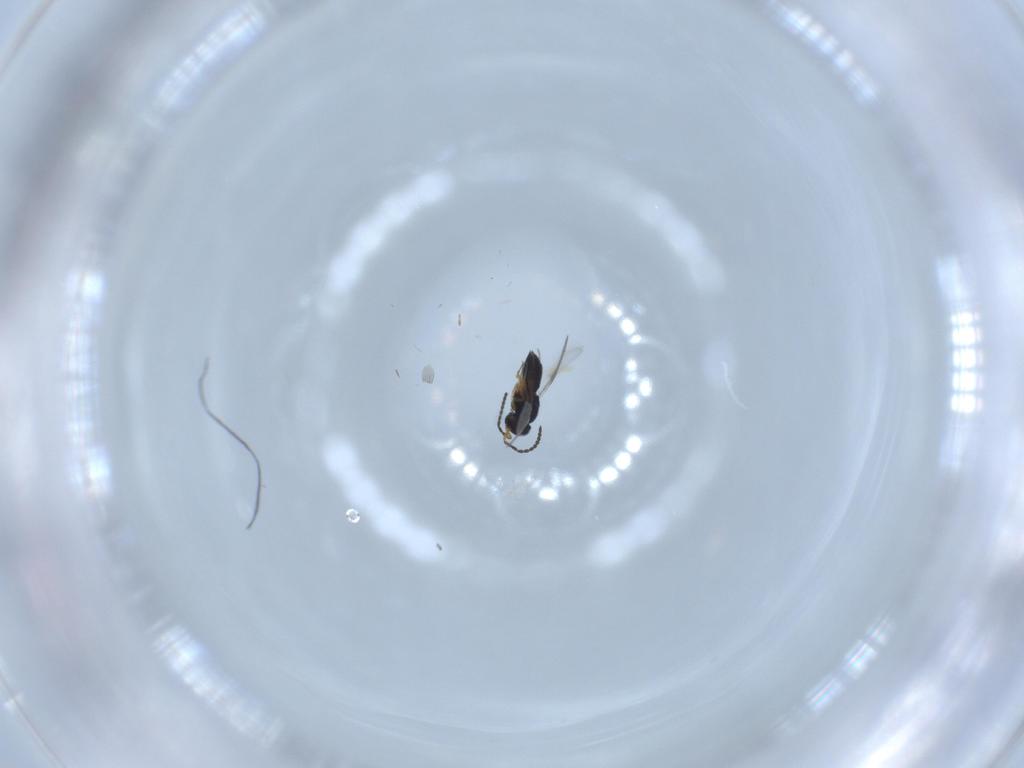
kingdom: Animalia
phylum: Arthropoda
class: Insecta
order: Hymenoptera
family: Scelionidae
